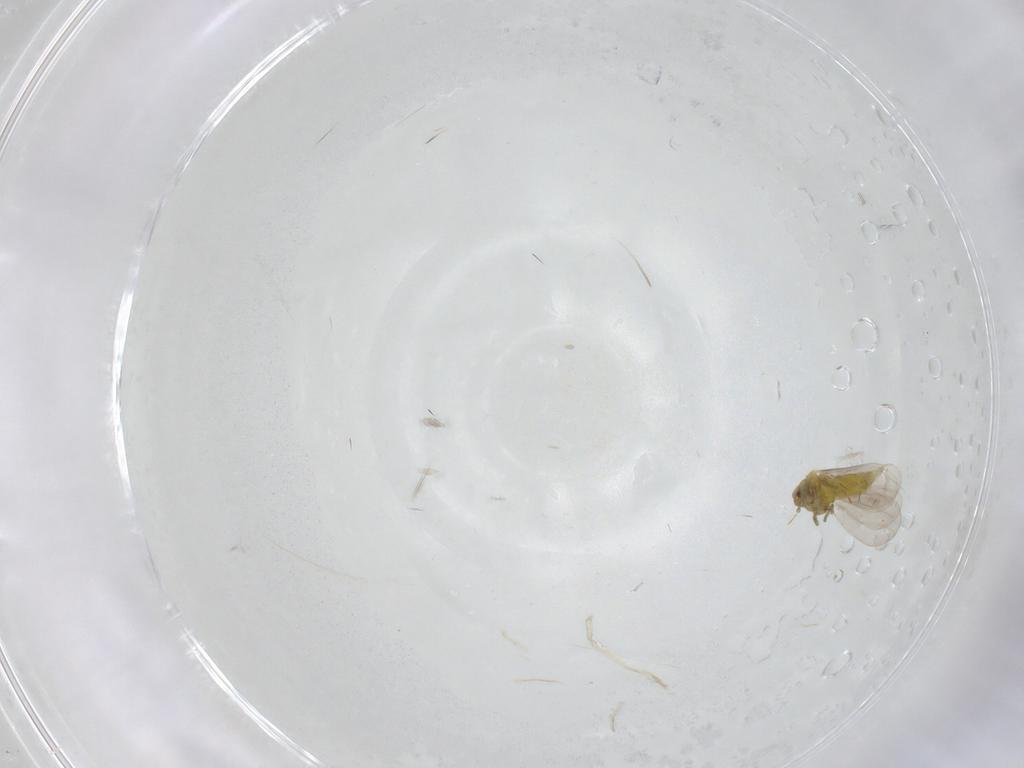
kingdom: Animalia
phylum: Arthropoda
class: Insecta
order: Hemiptera
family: Aleyrodidae
